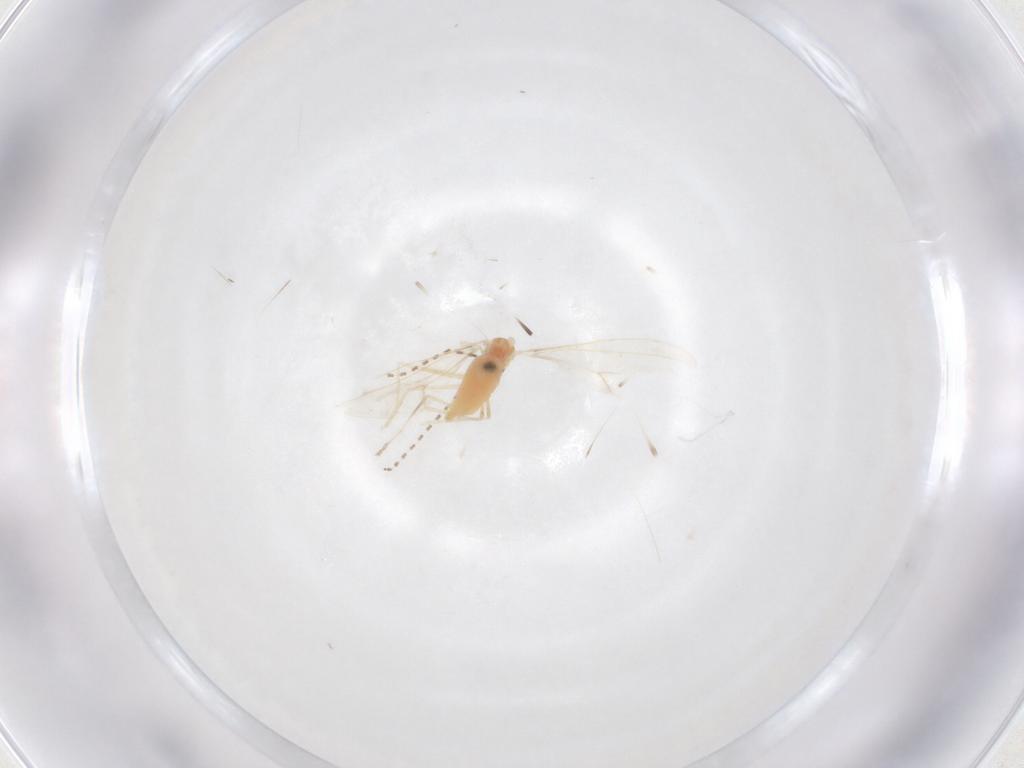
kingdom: Animalia
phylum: Arthropoda
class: Insecta
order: Diptera
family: Cecidomyiidae
